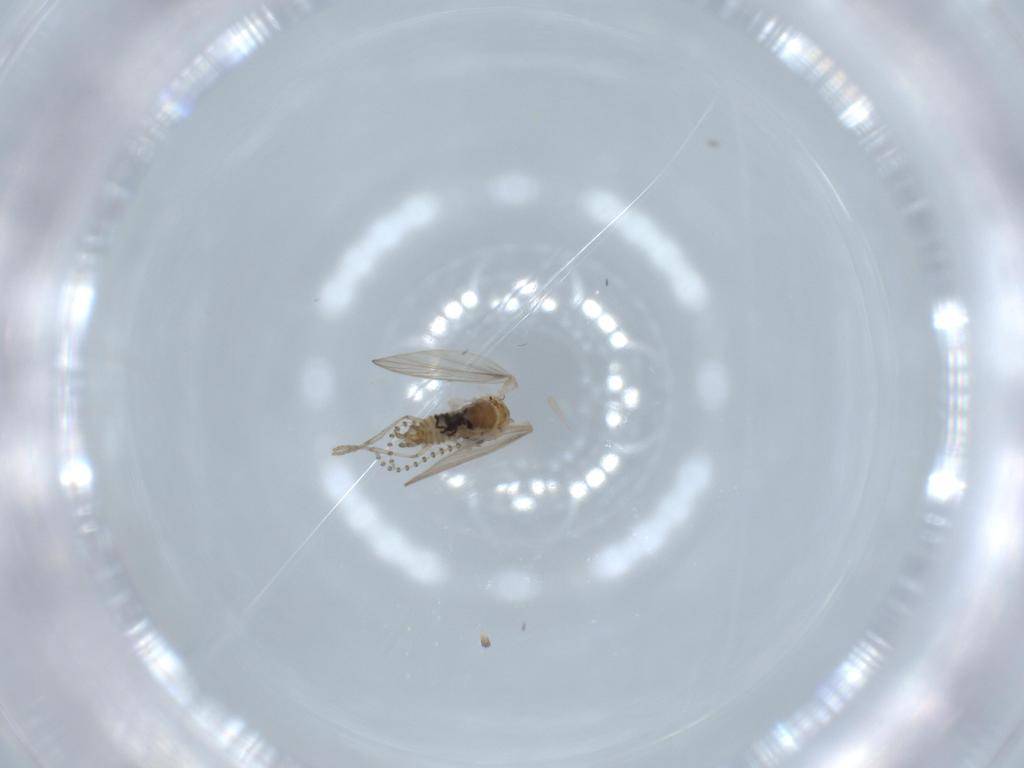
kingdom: Animalia
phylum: Arthropoda
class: Insecta
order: Diptera
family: Psychodidae
